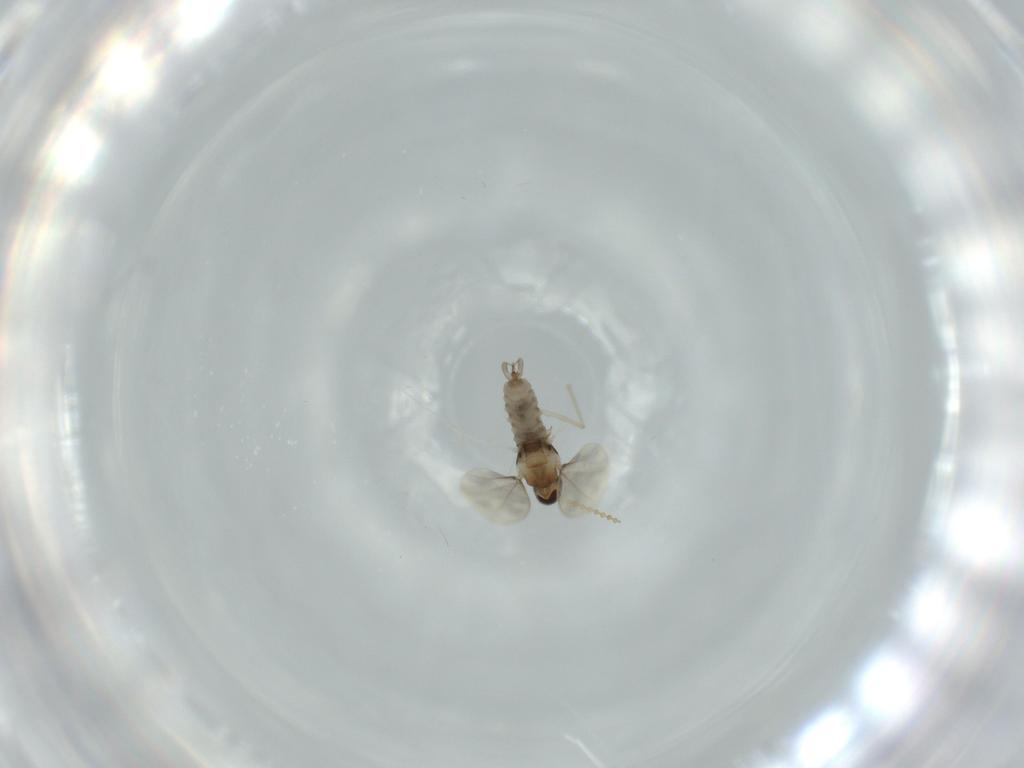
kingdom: Animalia
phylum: Arthropoda
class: Insecta
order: Diptera
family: Cecidomyiidae
